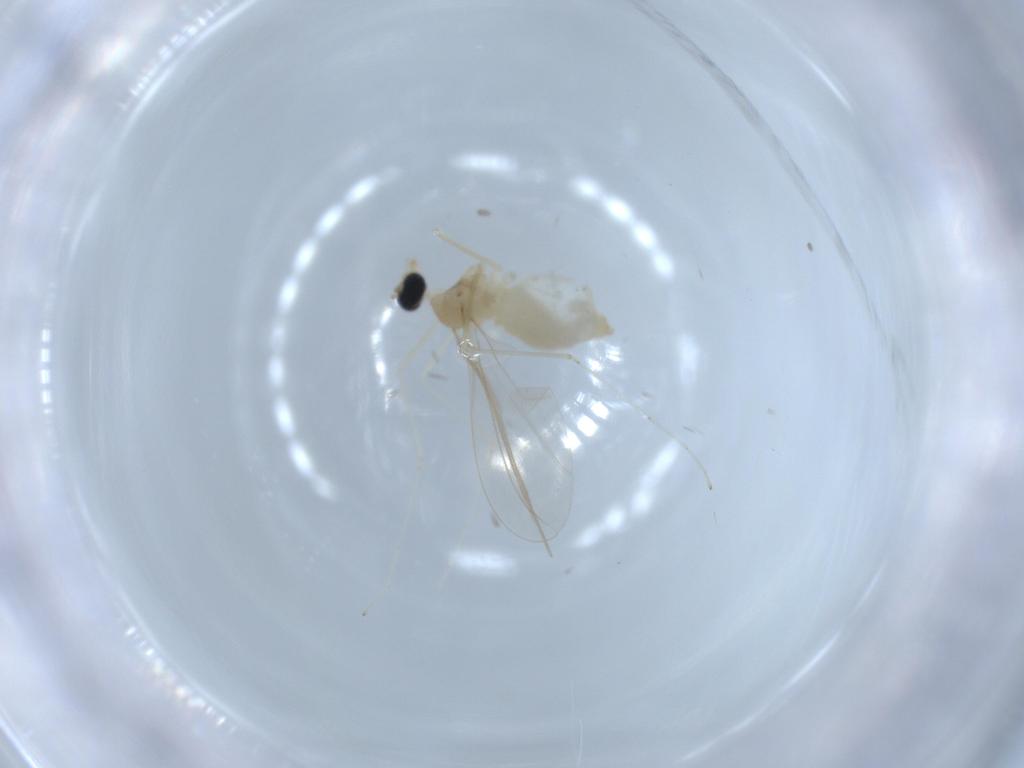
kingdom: Animalia
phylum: Arthropoda
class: Insecta
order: Diptera
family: Cecidomyiidae
